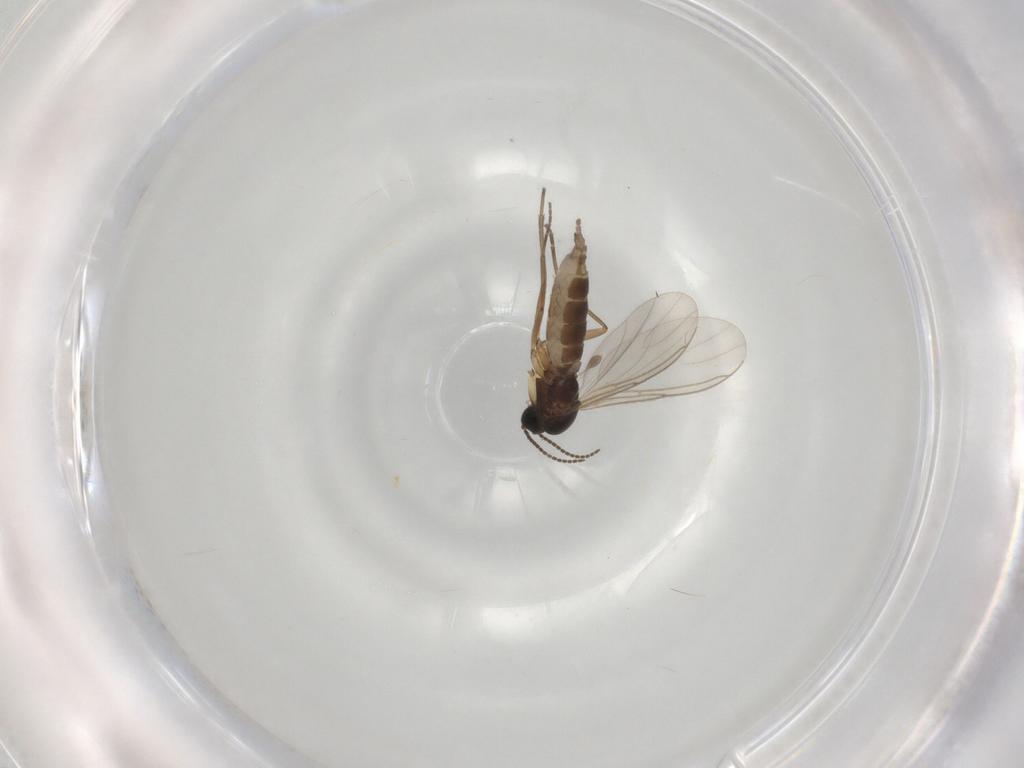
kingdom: Animalia
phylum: Arthropoda
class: Insecta
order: Diptera
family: Sciaridae
